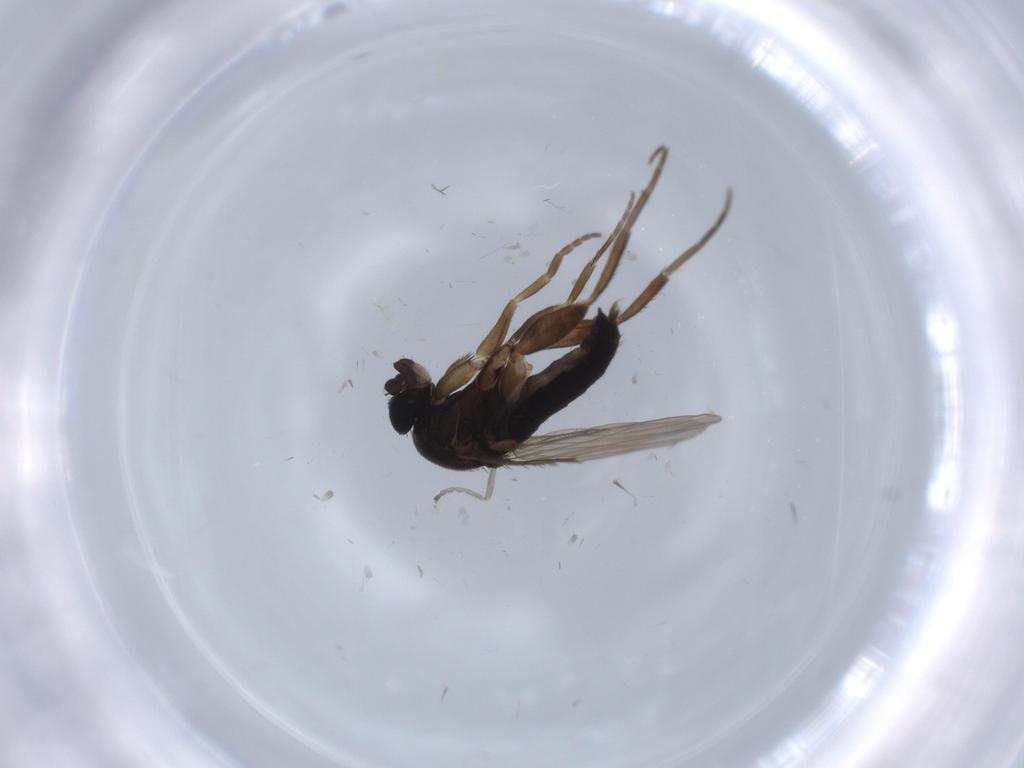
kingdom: Animalia
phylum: Arthropoda
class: Insecta
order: Diptera
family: Phoridae
